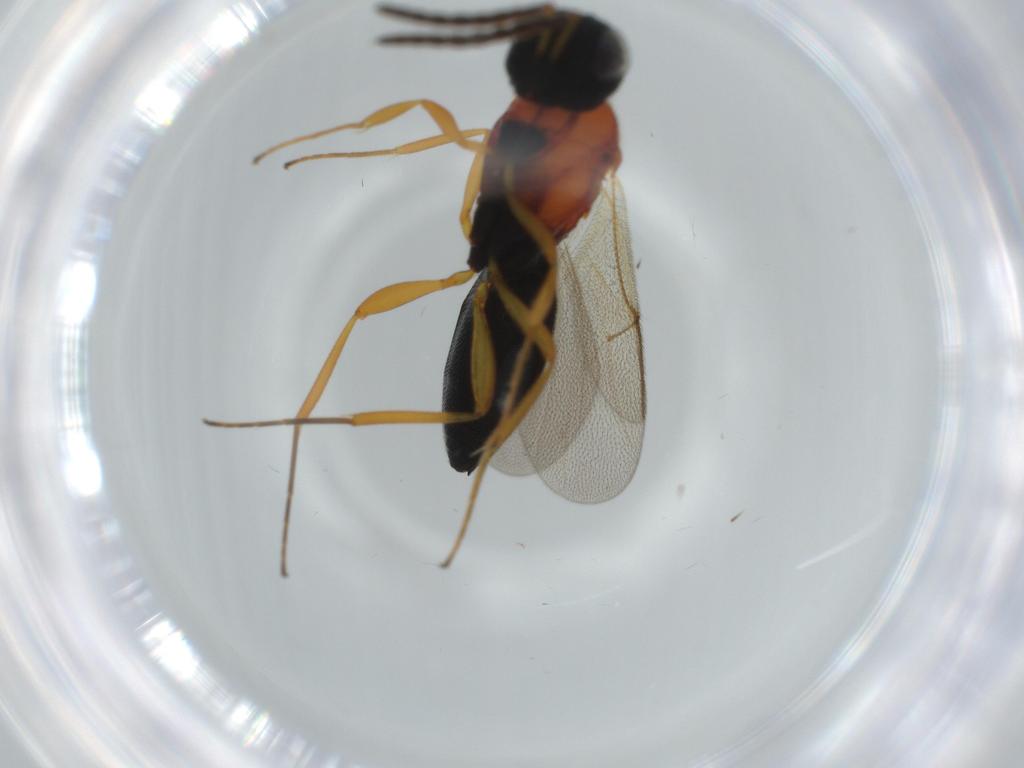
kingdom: Animalia
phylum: Arthropoda
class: Insecta
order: Hymenoptera
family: Scelionidae
